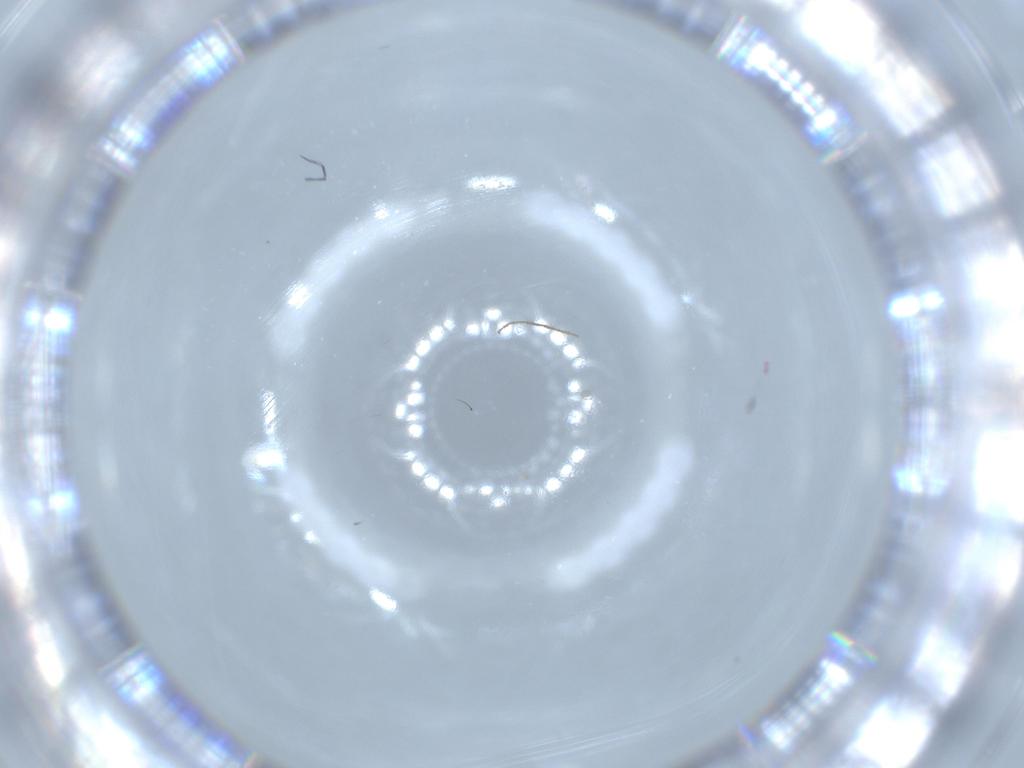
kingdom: Animalia
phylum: Arthropoda
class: Insecta
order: Diptera
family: Chironomidae
